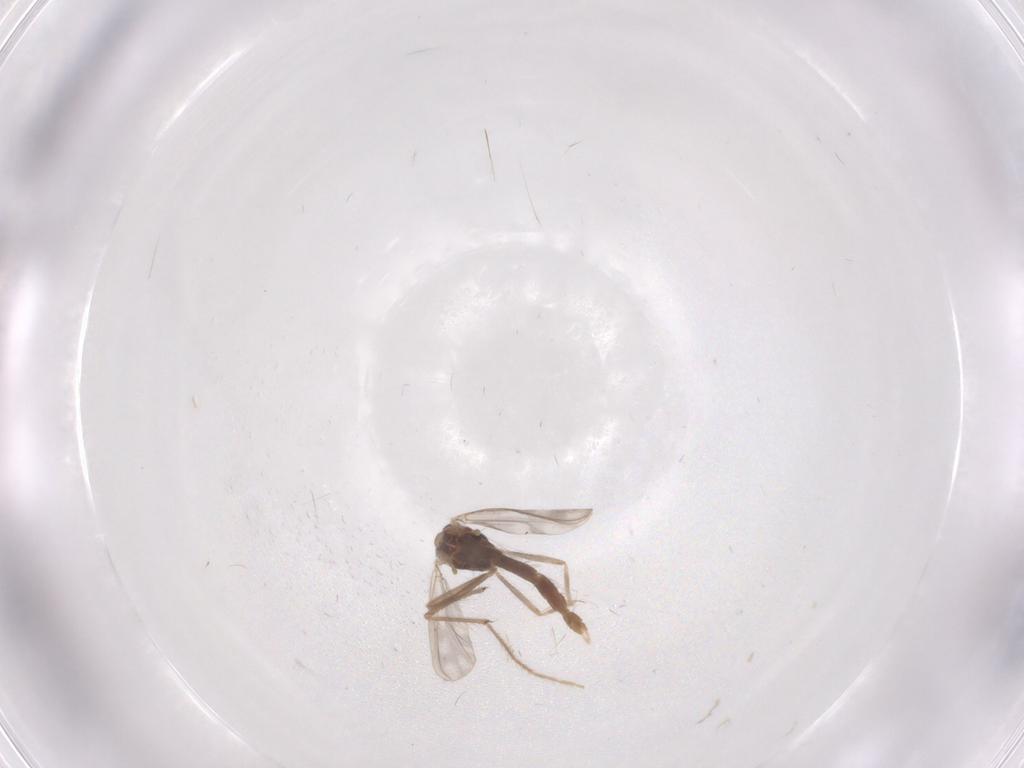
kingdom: Animalia
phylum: Arthropoda
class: Insecta
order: Diptera
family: Chironomidae
